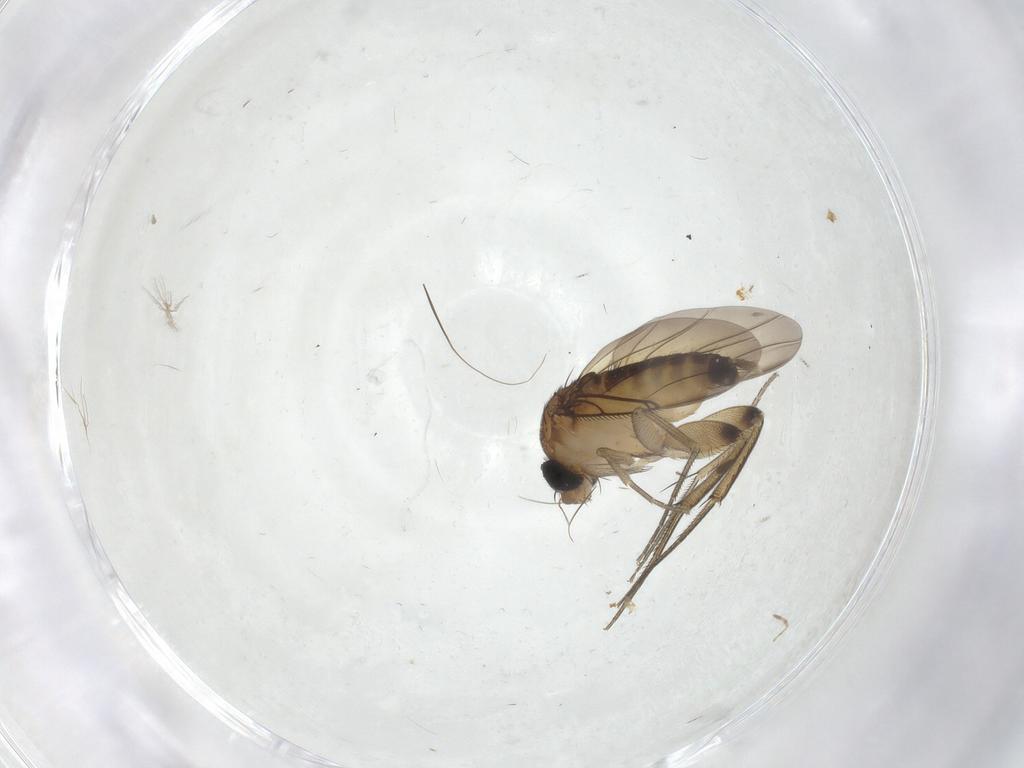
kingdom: Animalia
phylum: Arthropoda
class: Insecta
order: Diptera
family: Phoridae
